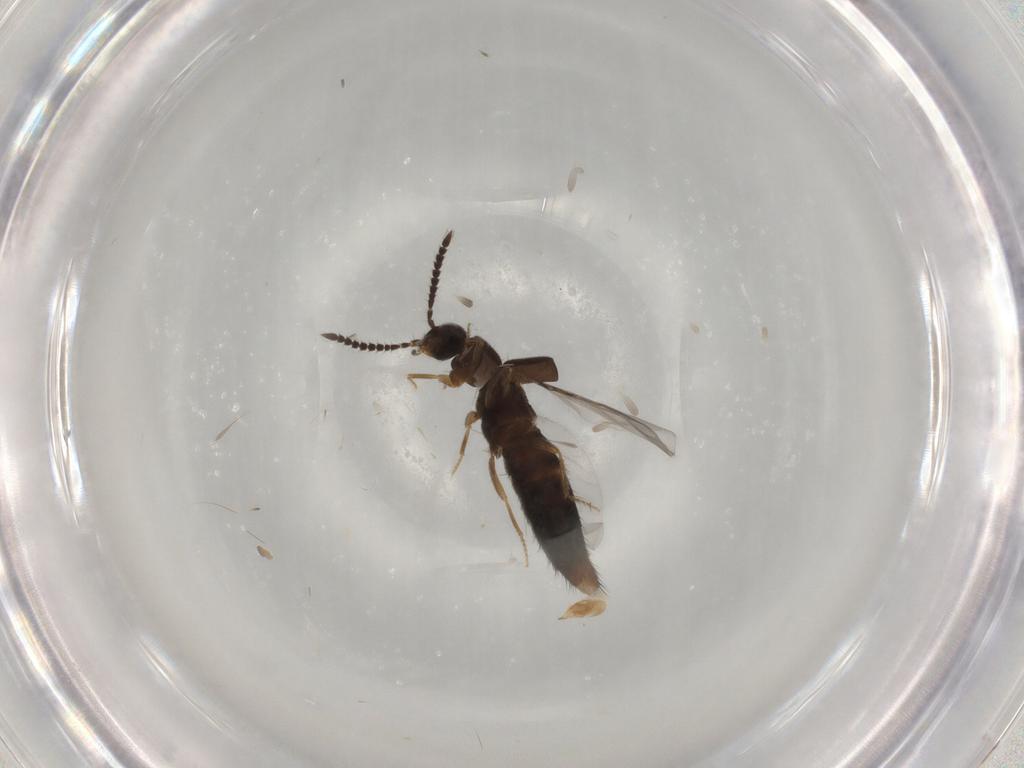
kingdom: Animalia
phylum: Arthropoda
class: Insecta
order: Coleoptera
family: Staphylinidae
